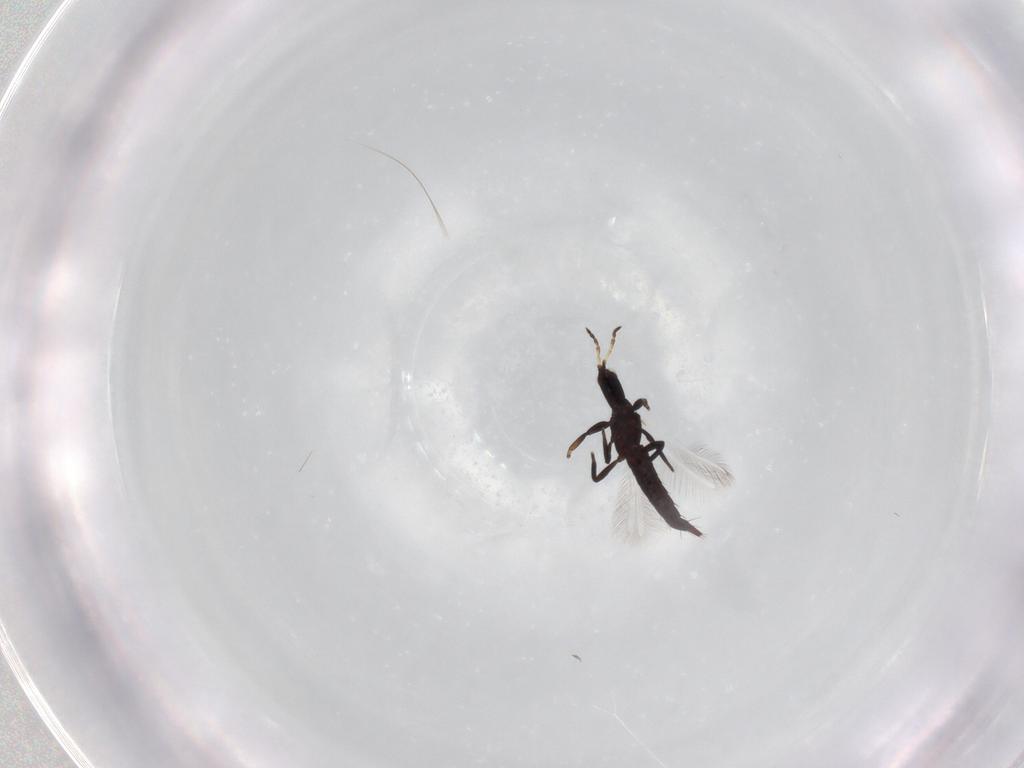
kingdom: Animalia
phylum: Arthropoda
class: Insecta
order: Thysanoptera
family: Phlaeothripidae
